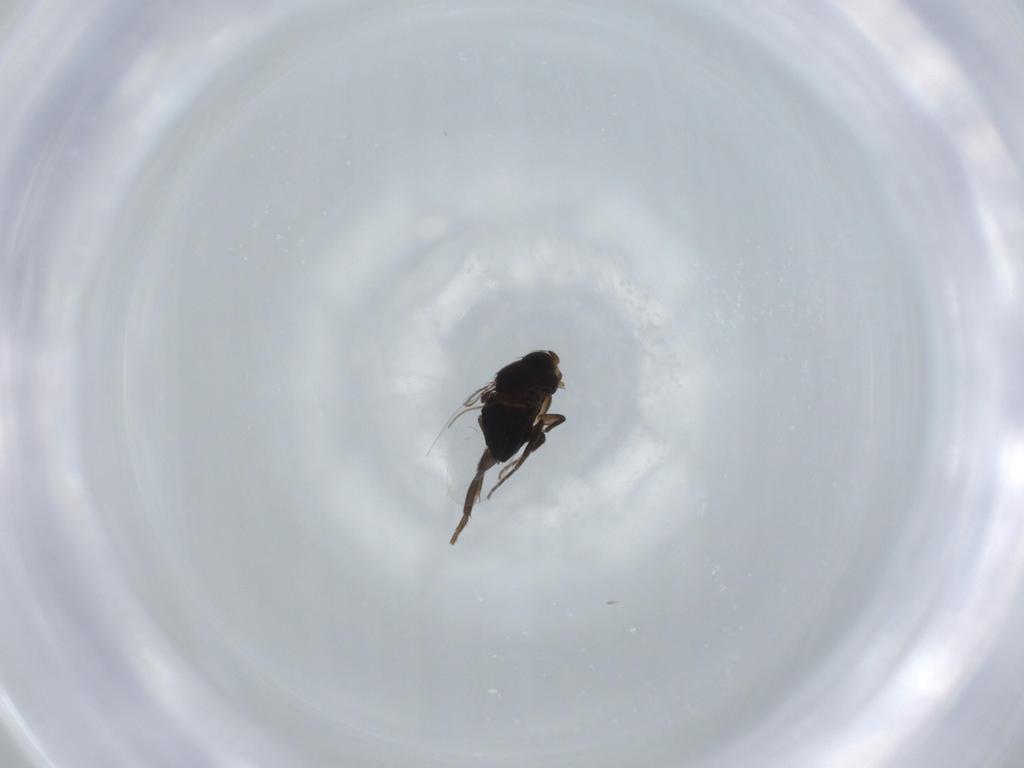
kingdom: Animalia
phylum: Arthropoda
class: Insecta
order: Diptera
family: Phoridae
